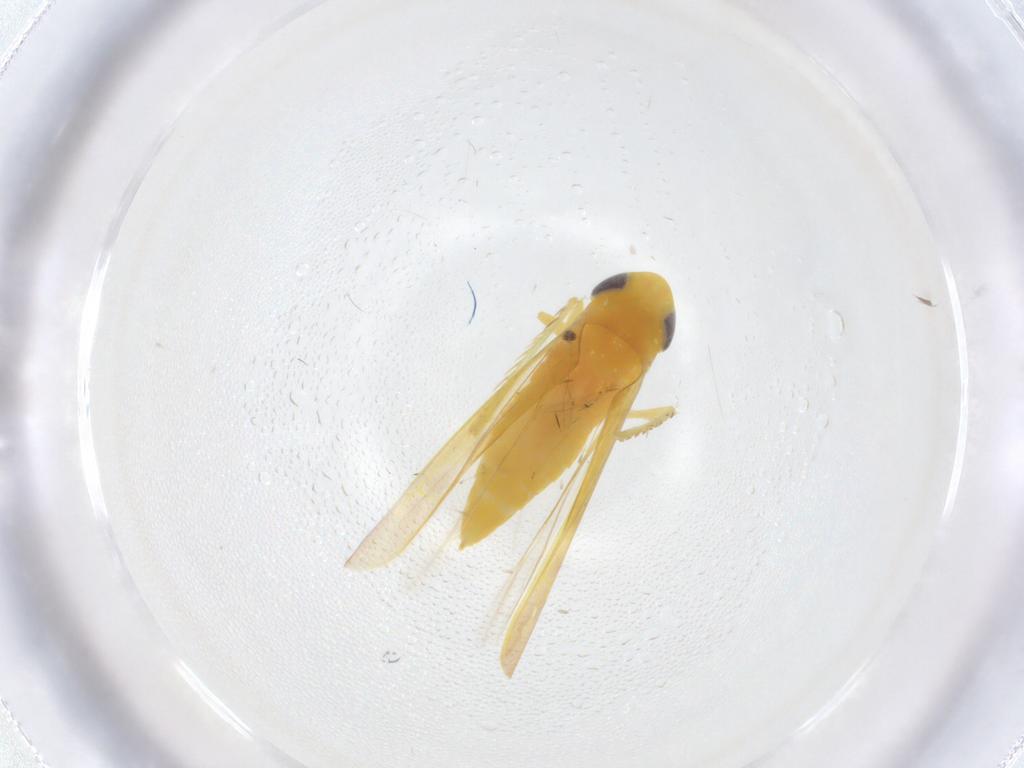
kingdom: Animalia
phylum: Arthropoda
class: Insecta
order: Hemiptera
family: Cicadellidae
